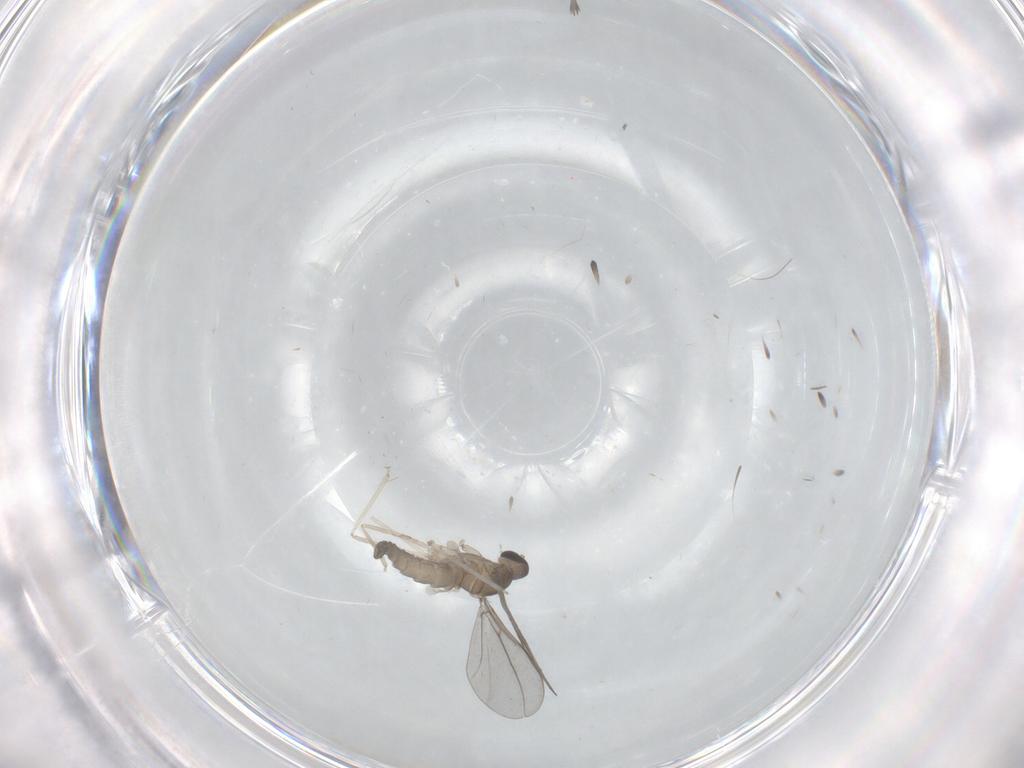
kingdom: Animalia
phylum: Arthropoda
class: Insecta
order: Diptera
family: Cecidomyiidae
